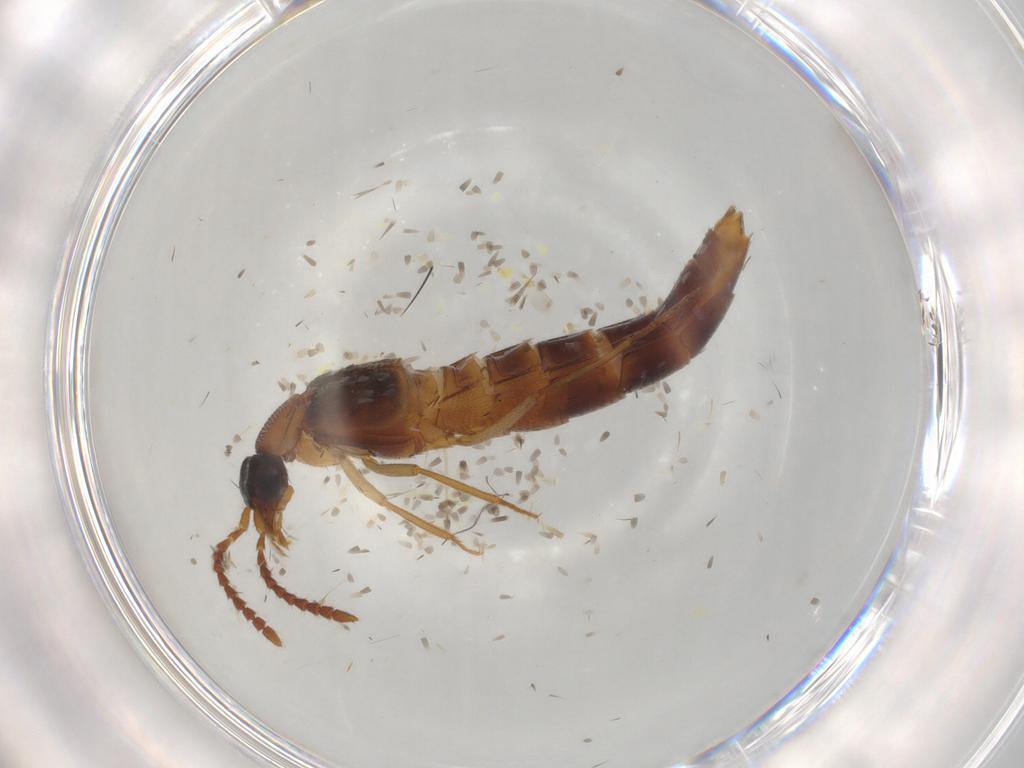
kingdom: Animalia
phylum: Arthropoda
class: Insecta
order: Coleoptera
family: Staphylinidae
